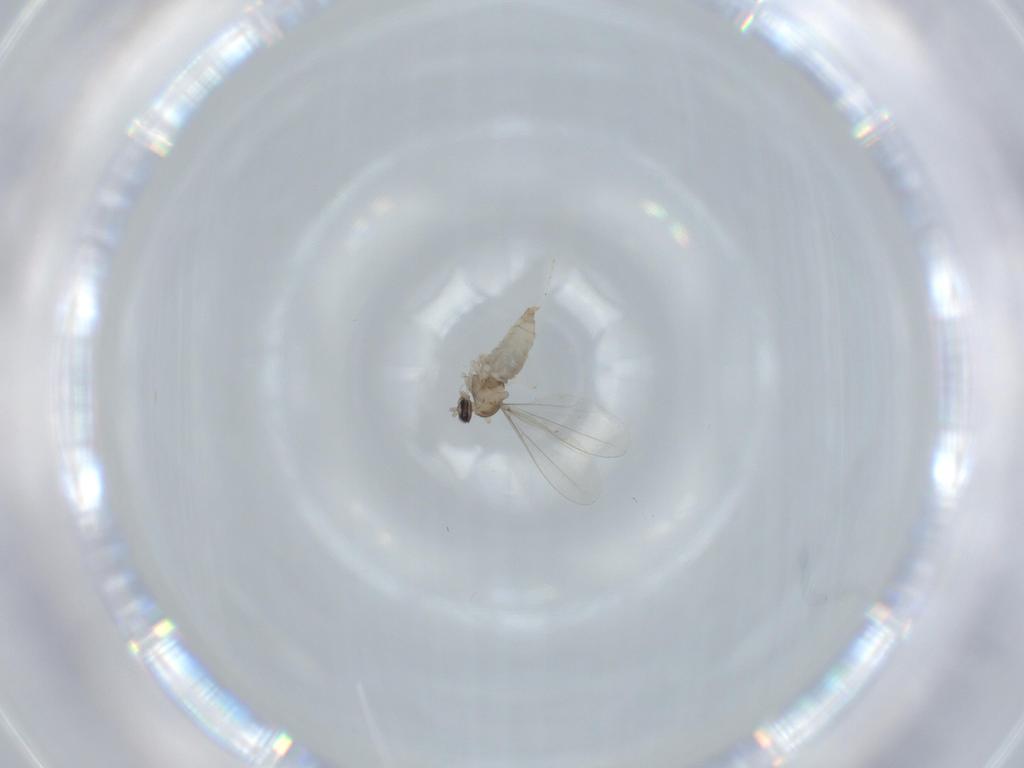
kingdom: Animalia
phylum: Arthropoda
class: Insecta
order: Diptera
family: Cecidomyiidae
